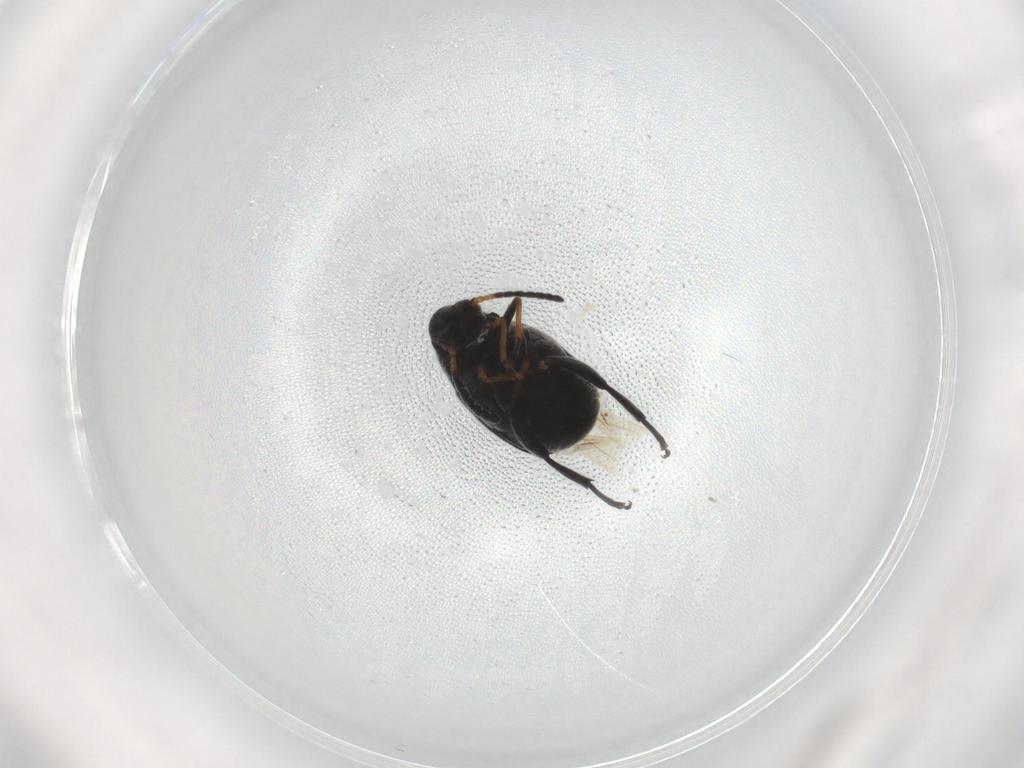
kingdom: Animalia
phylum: Arthropoda
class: Insecta
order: Coleoptera
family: Chrysomelidae
